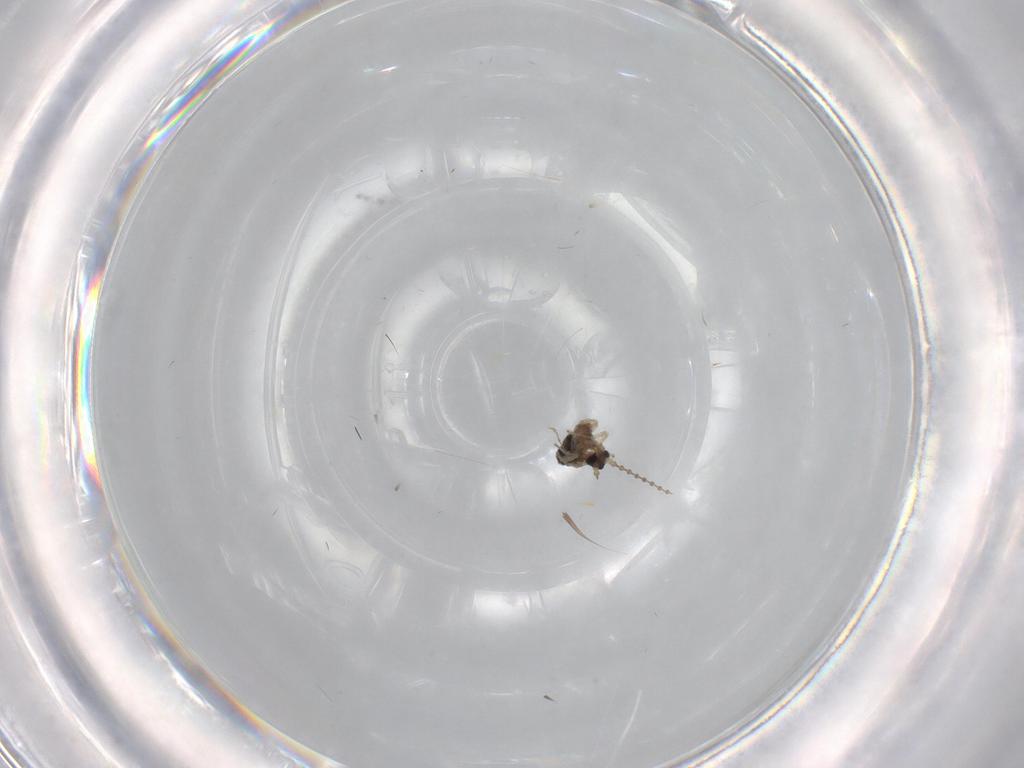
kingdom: Animalia
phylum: Arthropoda
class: Insecta
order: Diptera
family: Cecidomyiidae
